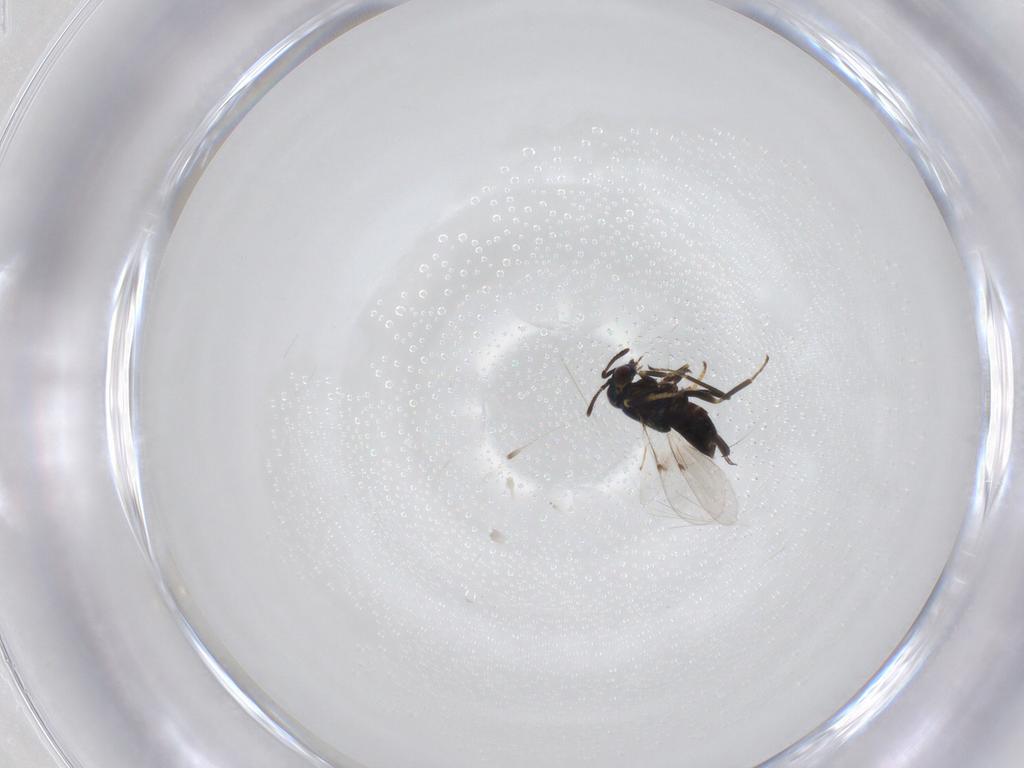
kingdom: Animalia
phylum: Arthropoda
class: Insecta
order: Hymenoptera
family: Encyrtidae
